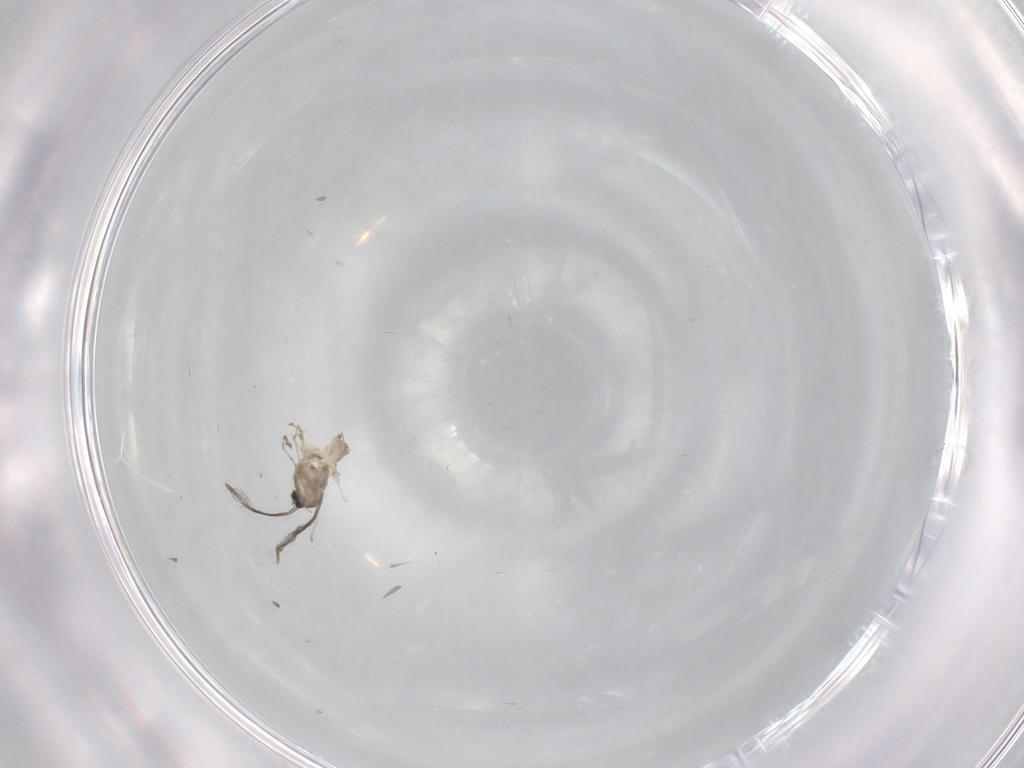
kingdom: Animalia
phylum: Arthropoda
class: Insecta
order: Diptera
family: Cecidomyiidae
